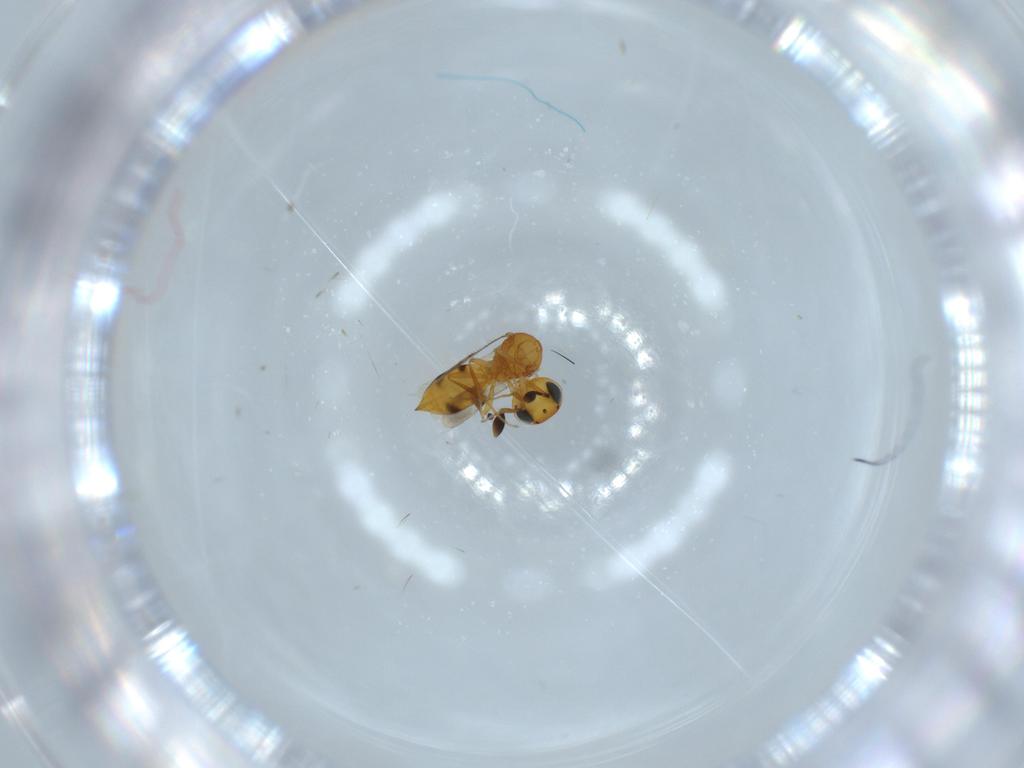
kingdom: Animalia
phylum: Arthropoda
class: Insecta
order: Hymenoptera
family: Scelionidae
